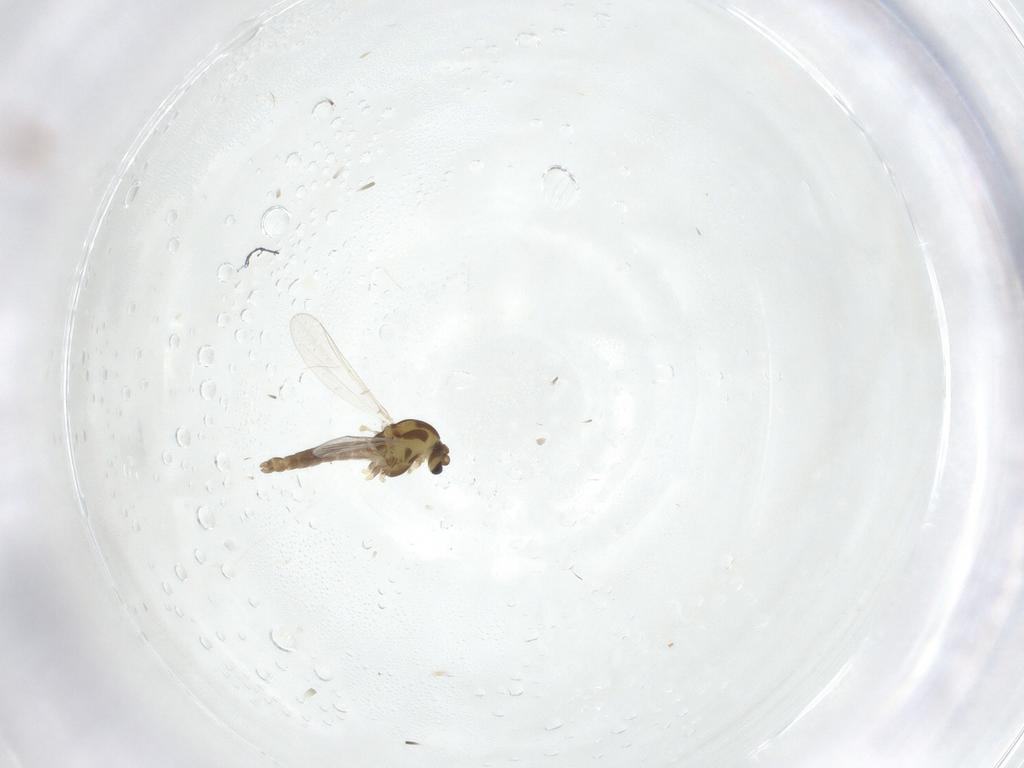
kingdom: Animalia
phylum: Arthropoda
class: Insecta
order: Diptera
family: Chironomidae
